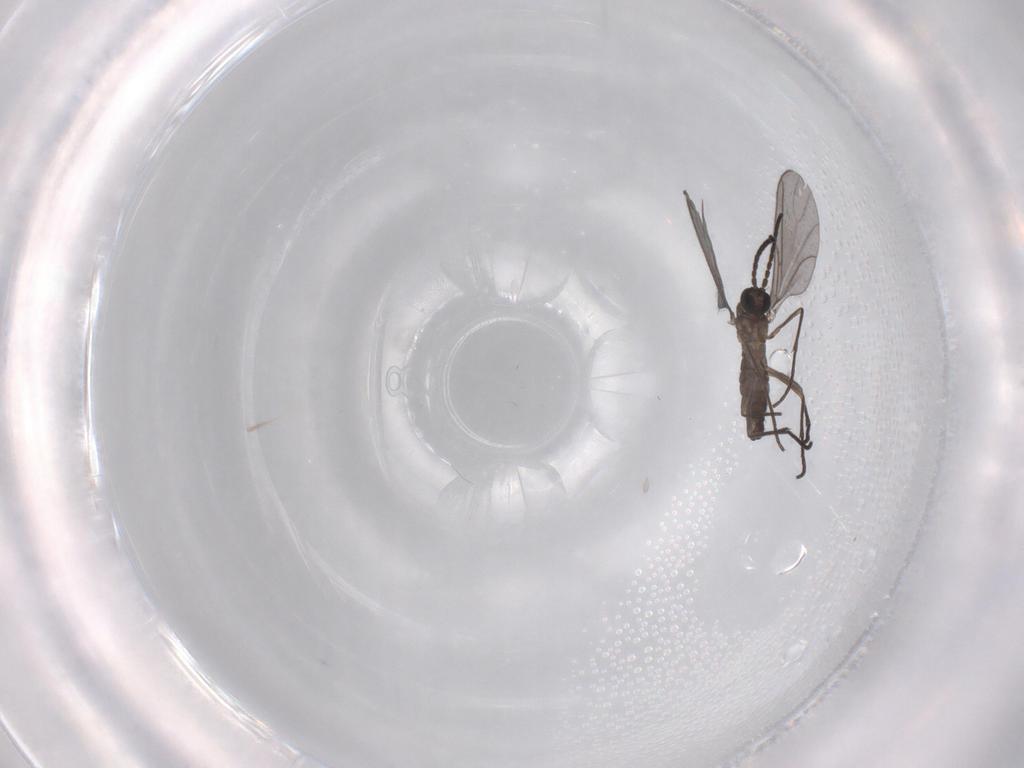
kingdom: Animalia
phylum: Arthropoda
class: Insecta
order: Diptera
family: Sciaridae
